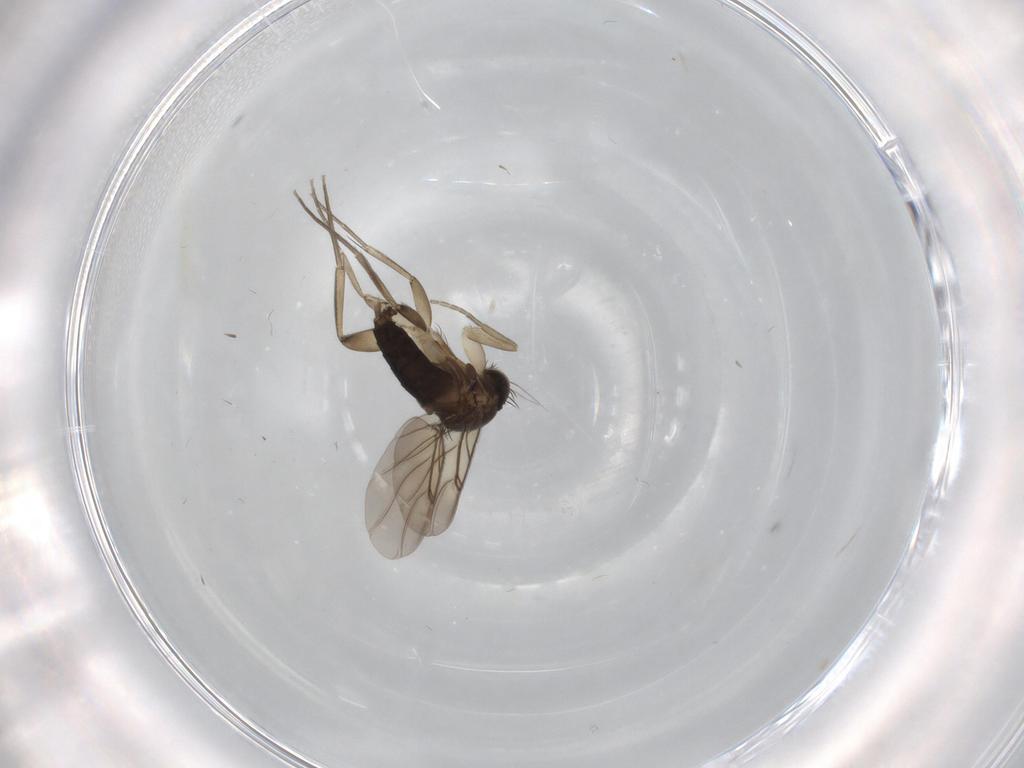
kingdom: Animalia
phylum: Arthropoda
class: Insecta
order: Diptera
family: Phoridae
